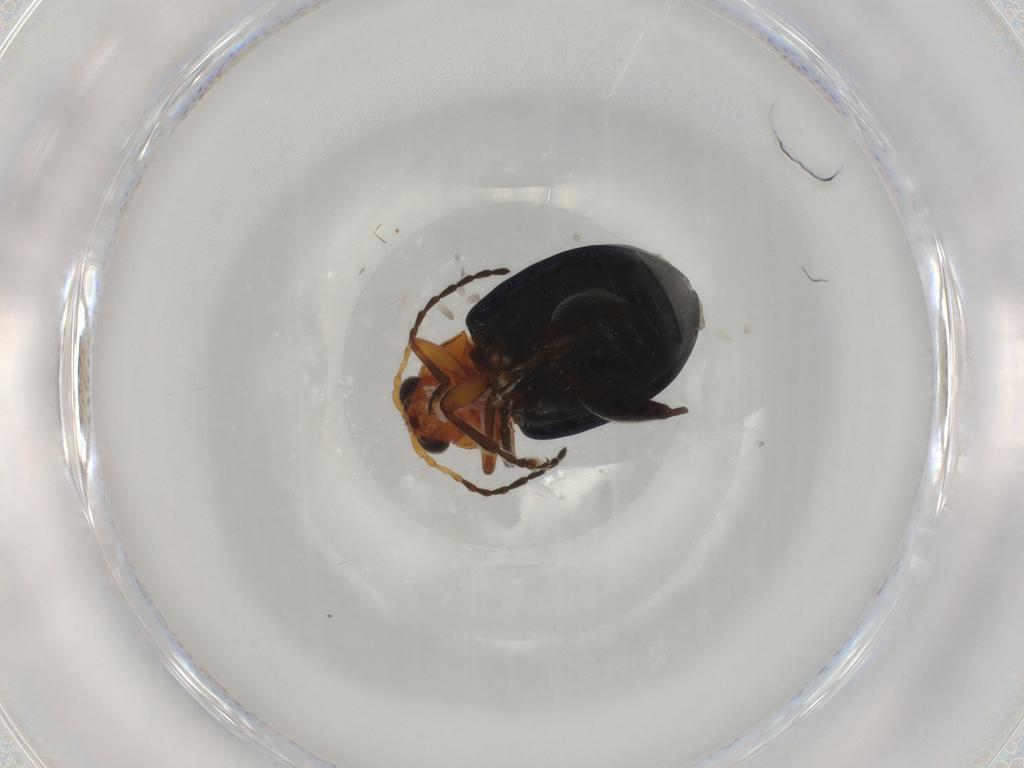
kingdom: Animalia
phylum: Arthropoda
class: Insecta
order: Coleoptera
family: Chrysomelidae
